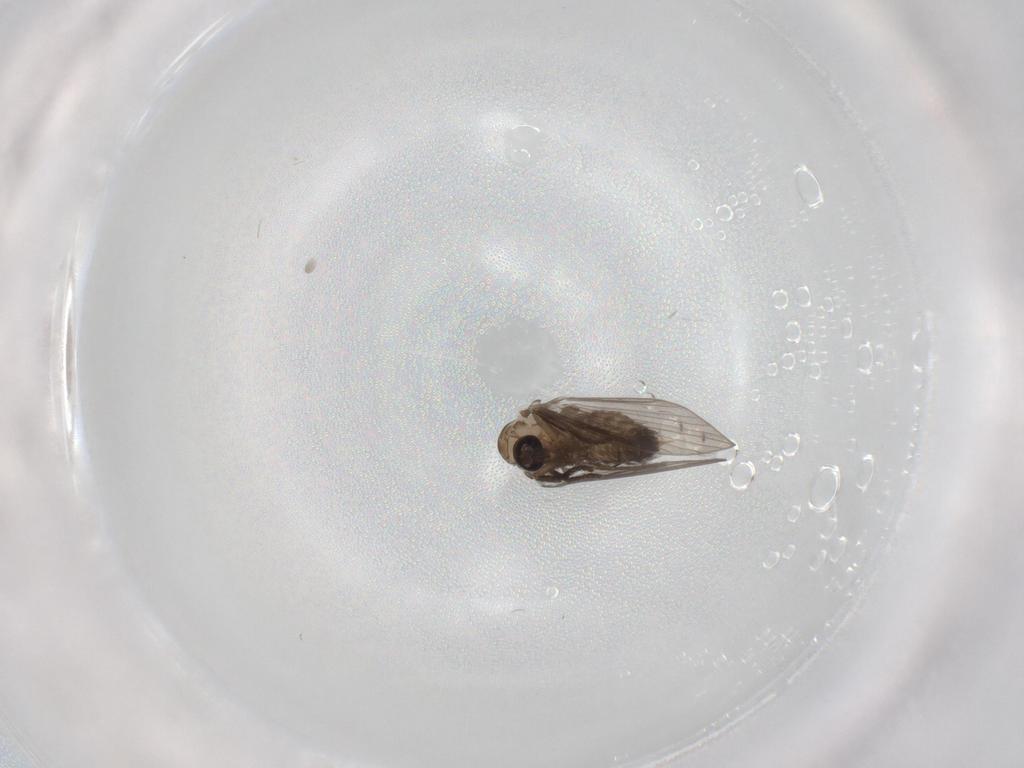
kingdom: Animalia
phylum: Arthropoda
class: Insecta
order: Diptera
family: Psychodidae
